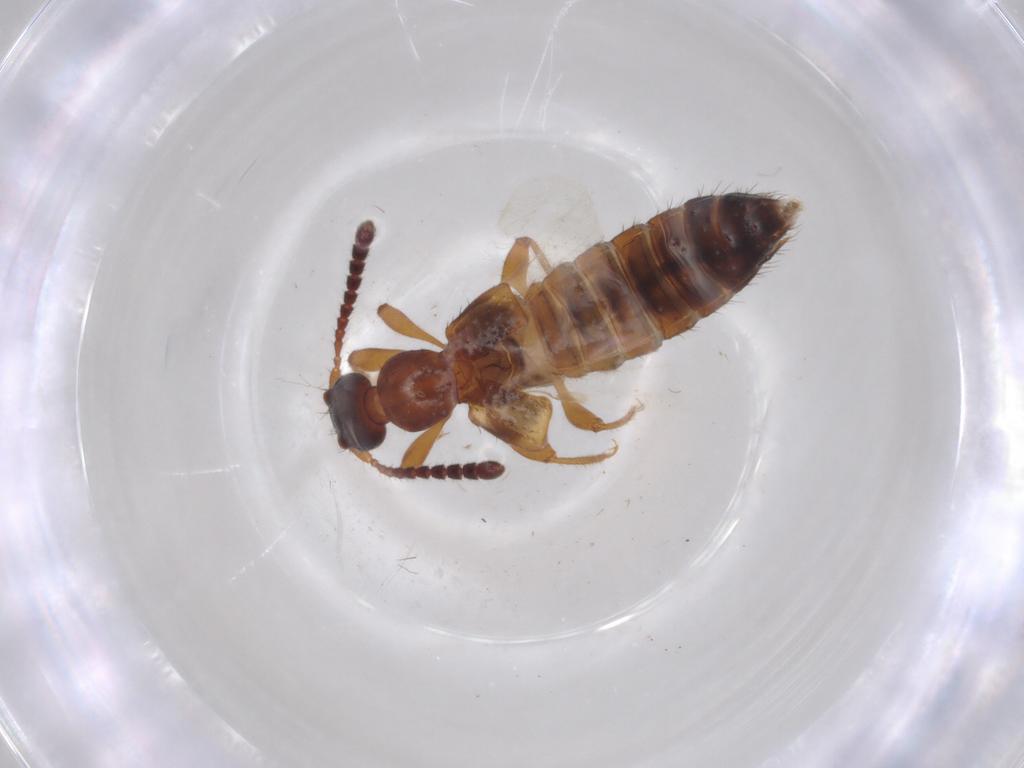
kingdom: Animalia
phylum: Arthropoda
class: Insecta
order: Coleoptera
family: Staphylinidae
